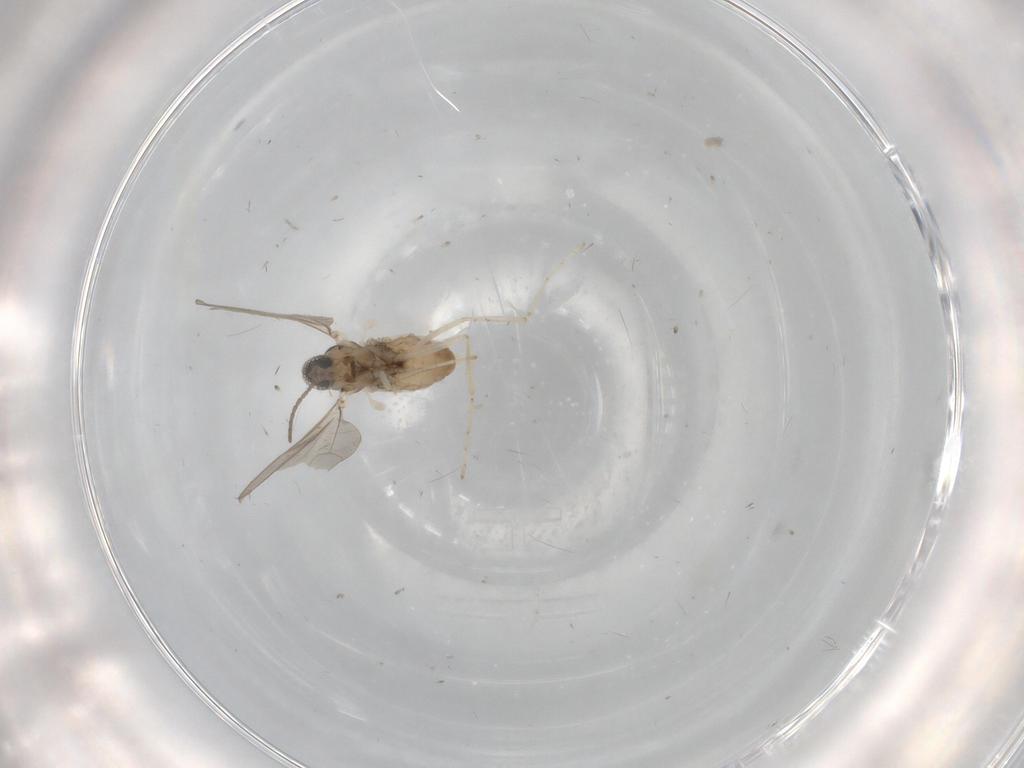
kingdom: Animalia
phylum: Arthropoda
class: Insecta
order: Diptera
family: Cecidomyiidae
